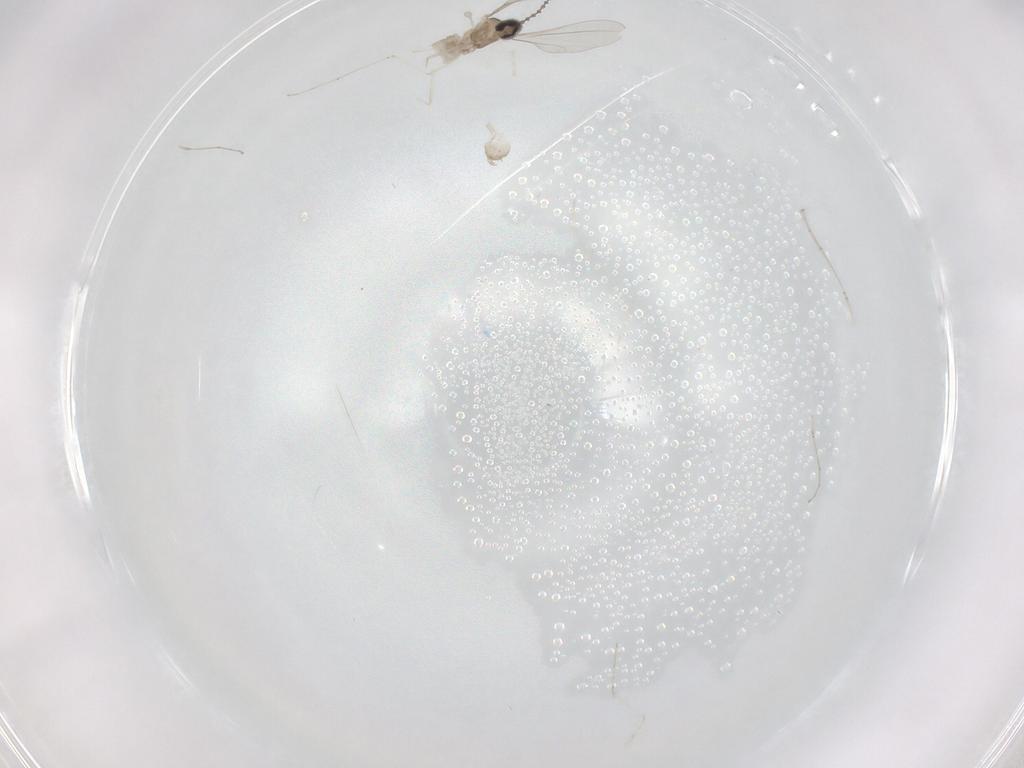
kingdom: Animalia
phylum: Arthropoda
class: Insecta
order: Diptera
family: Cecidomyiidae
